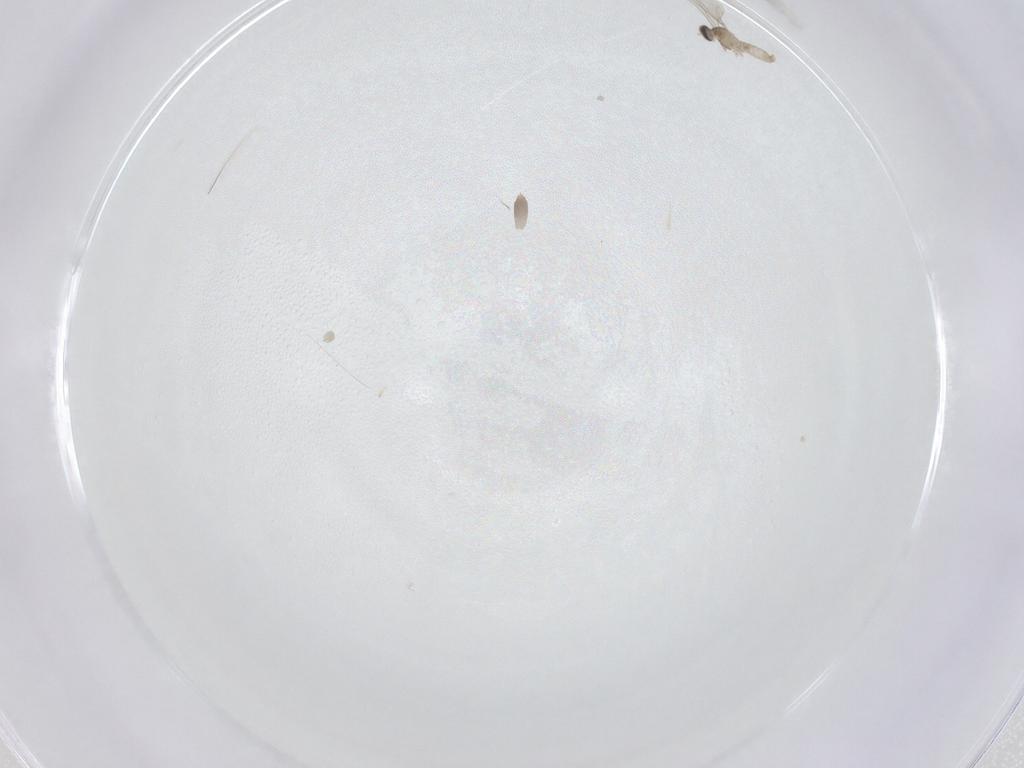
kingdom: Animalia
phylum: Arthropoda
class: Insecta
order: Diptera
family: Cecidomyiidae
